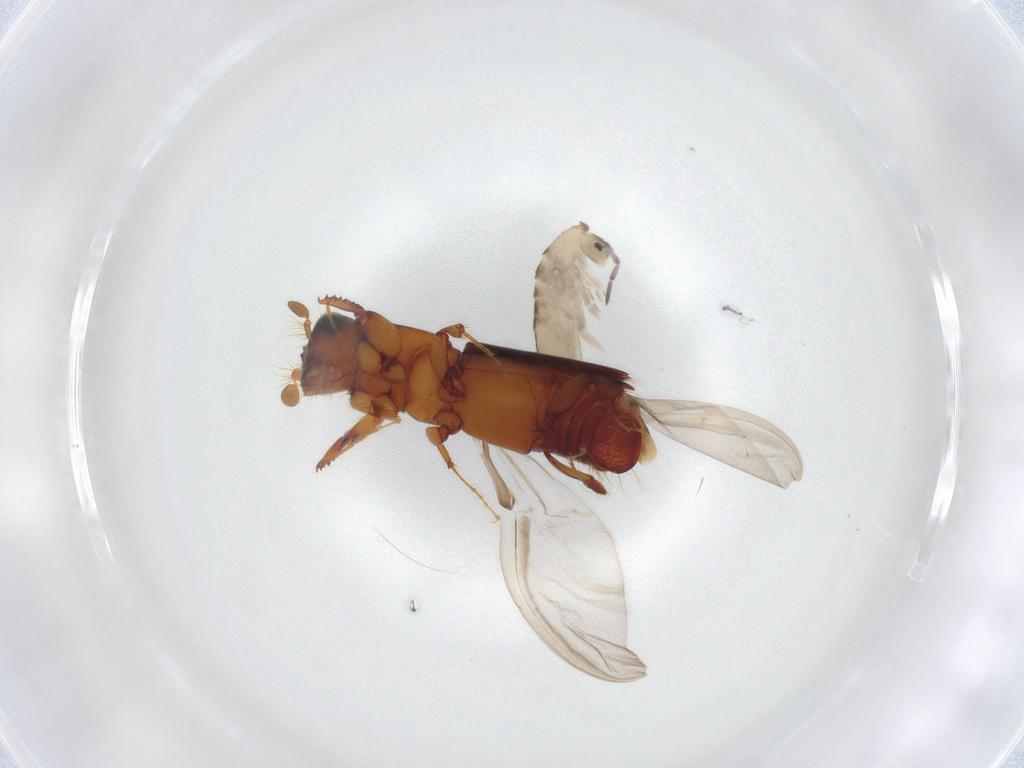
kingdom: Animalia
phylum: Arthropoda
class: Insecta
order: Coleoptera
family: Curculionidae
